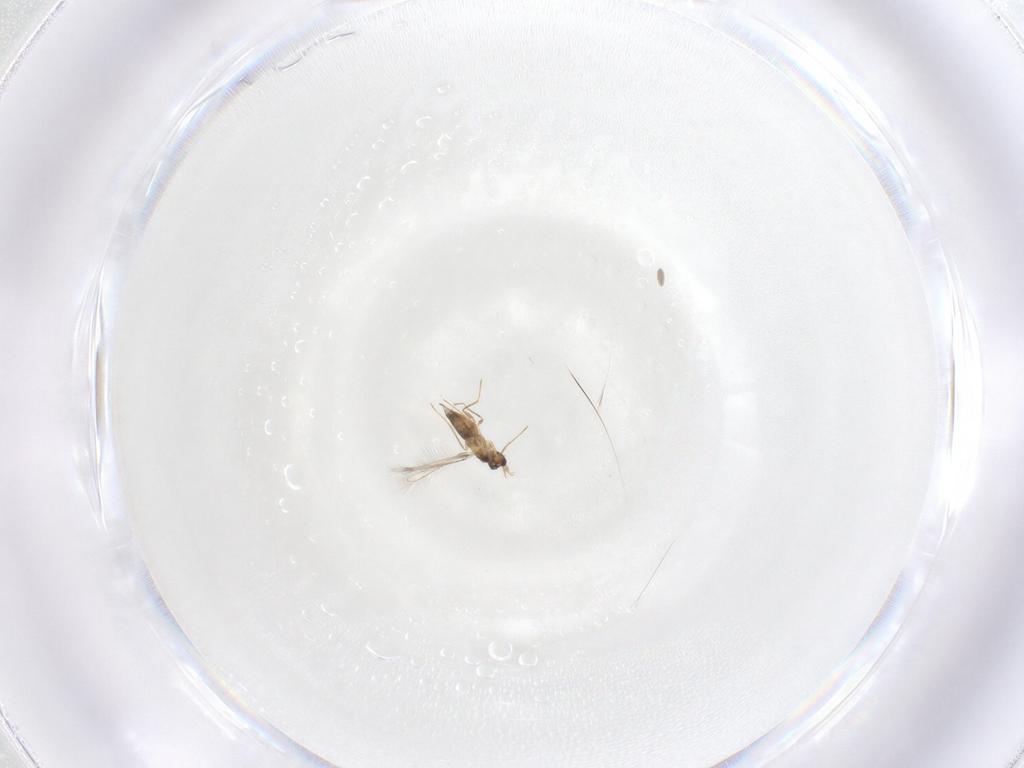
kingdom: Animalia
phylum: Arthropoda
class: Insecta
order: Hymenoptera
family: Mymaridae
